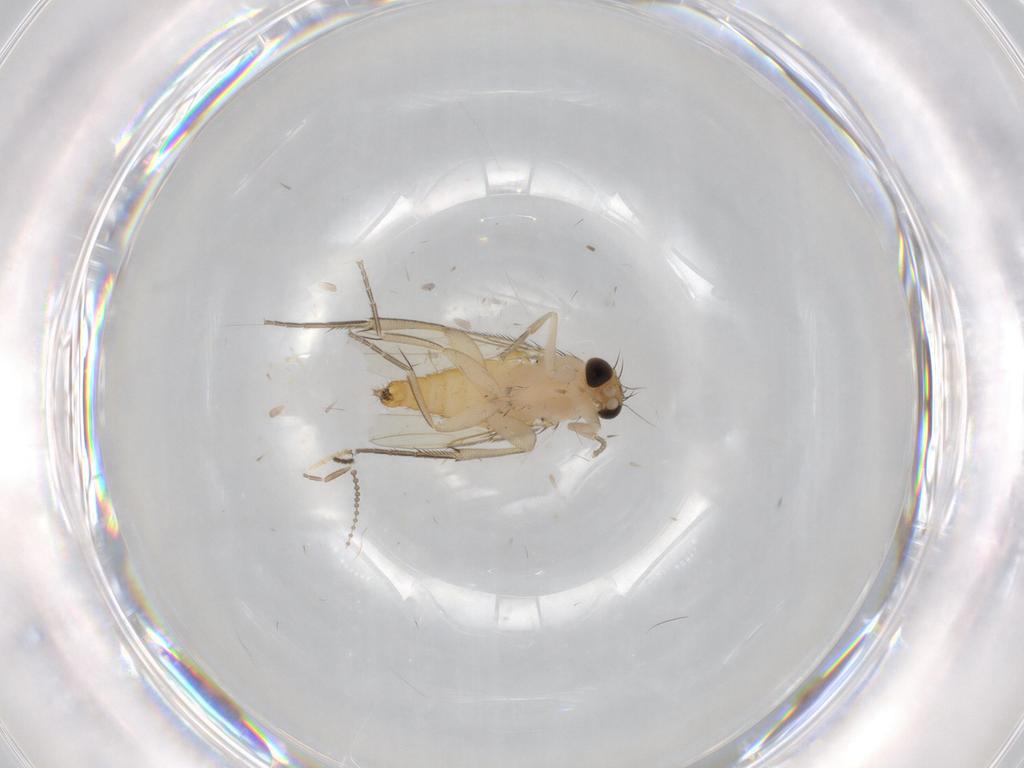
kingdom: Animalia
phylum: Arthropoda
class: Insecta
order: Diptera
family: Phoridae
